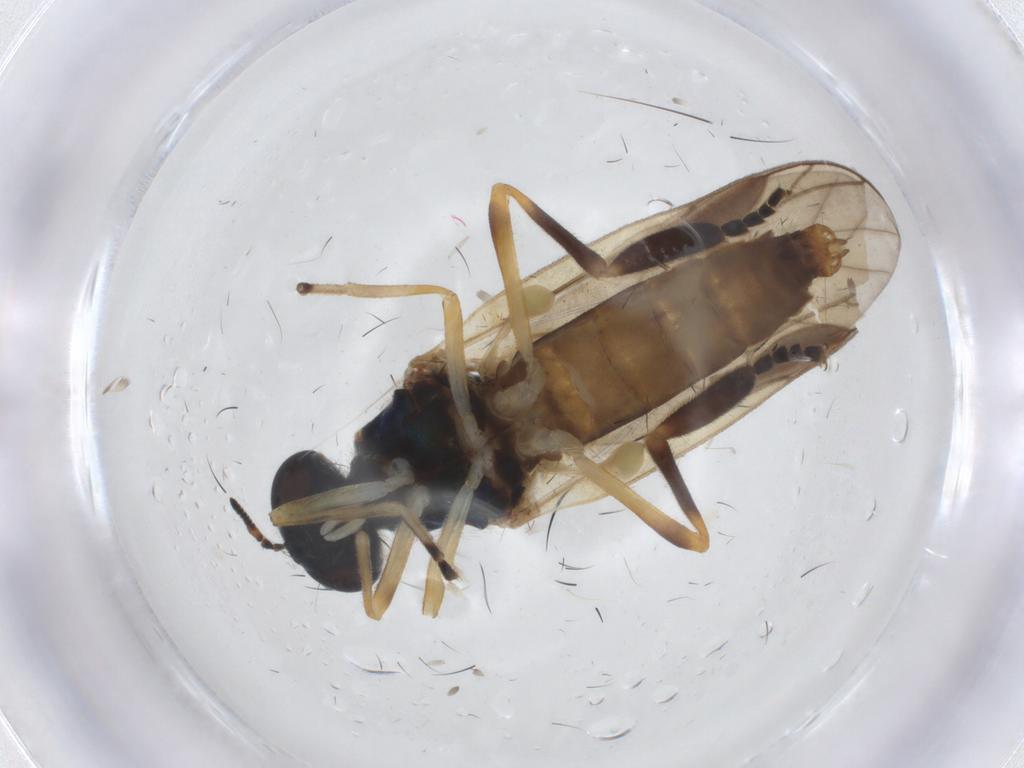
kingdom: Animalia
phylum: Arthropoda
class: Insecta
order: Diptera
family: Stratiomyidae
